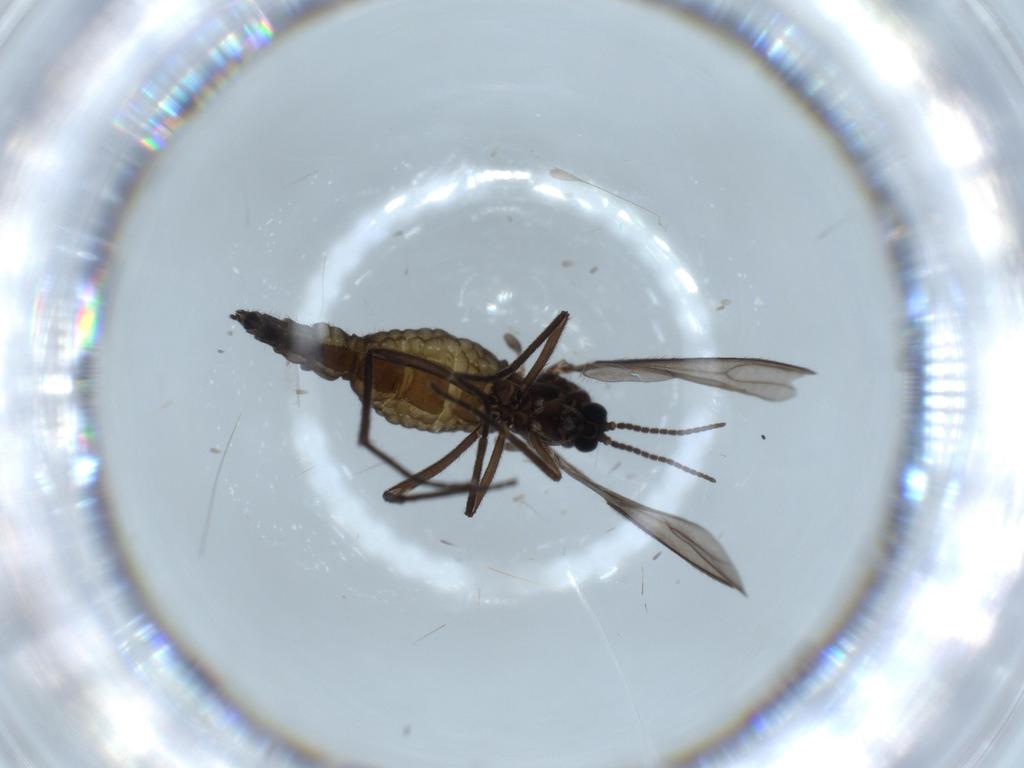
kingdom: Animalia
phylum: Arthropoda
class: Insecta
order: Diptera
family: Sciaridae
